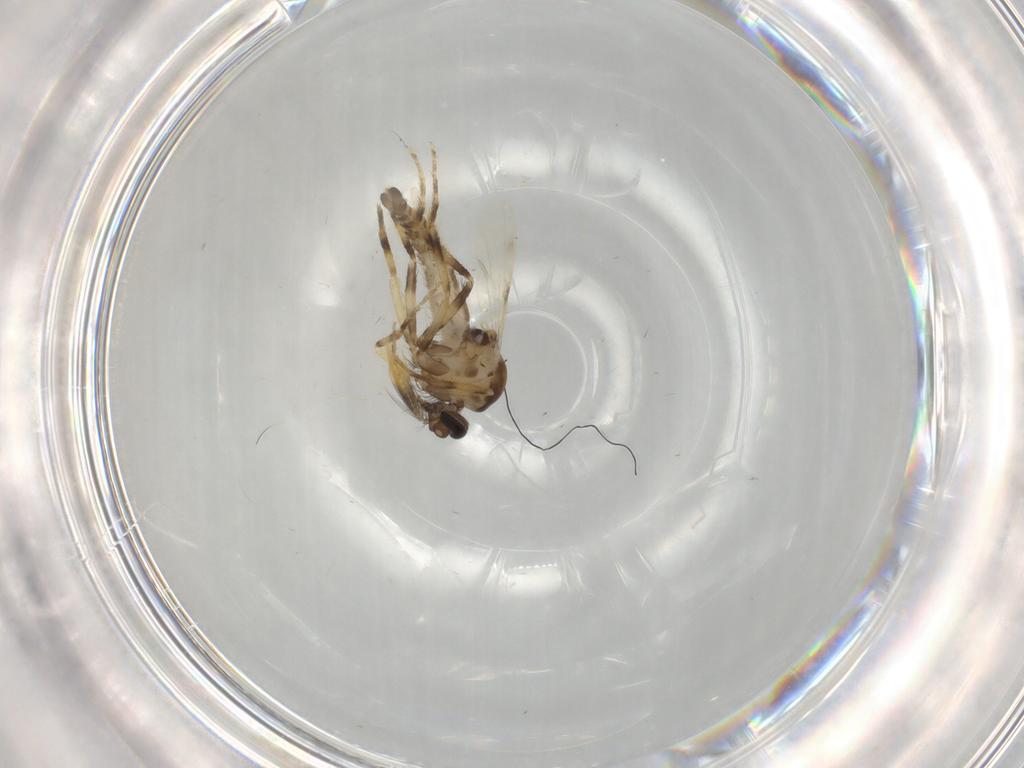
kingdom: Animalia
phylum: Arthropoda
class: Insecta
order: Diptera
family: Ceratopogonidae
